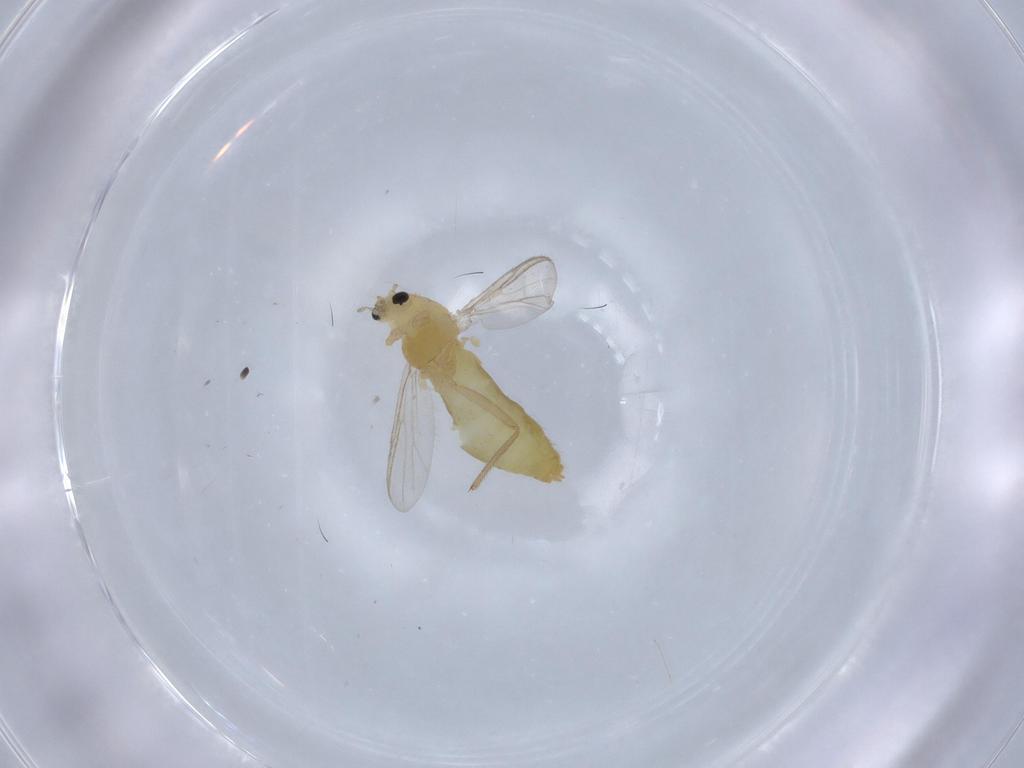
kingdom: Animalia
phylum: Arthropoda
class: Insecta
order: Diptera
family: Chironomidae
